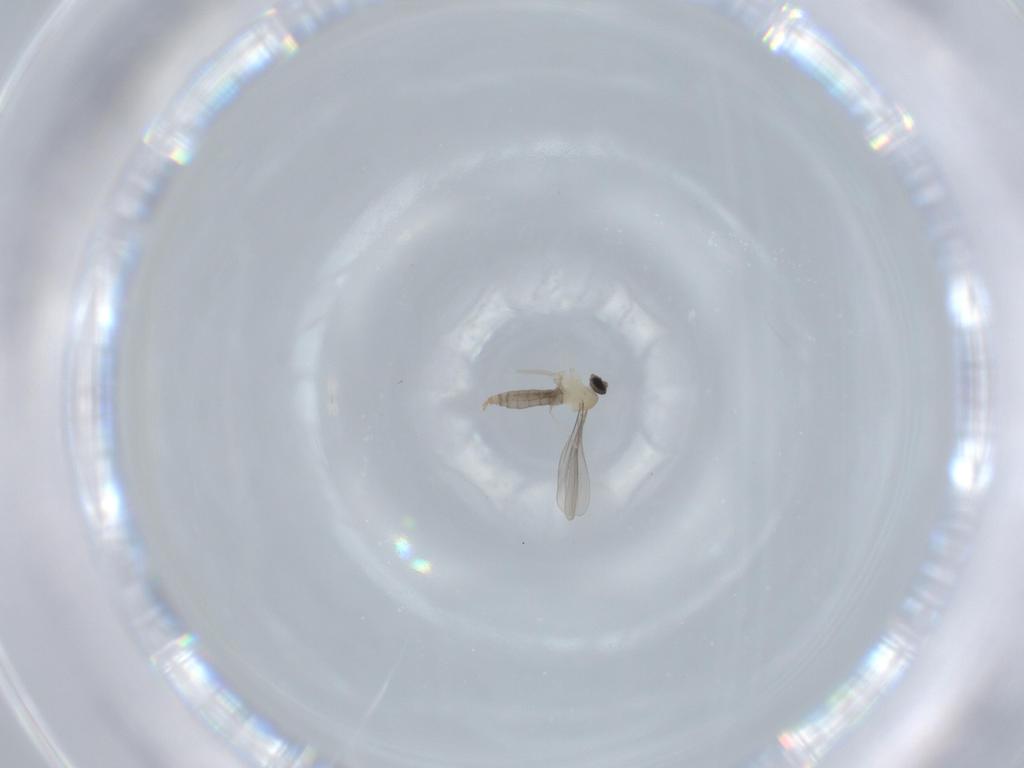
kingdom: Animalia
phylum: Arthropoda
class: Insecta
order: Diptera
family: Cecidomyiidae
